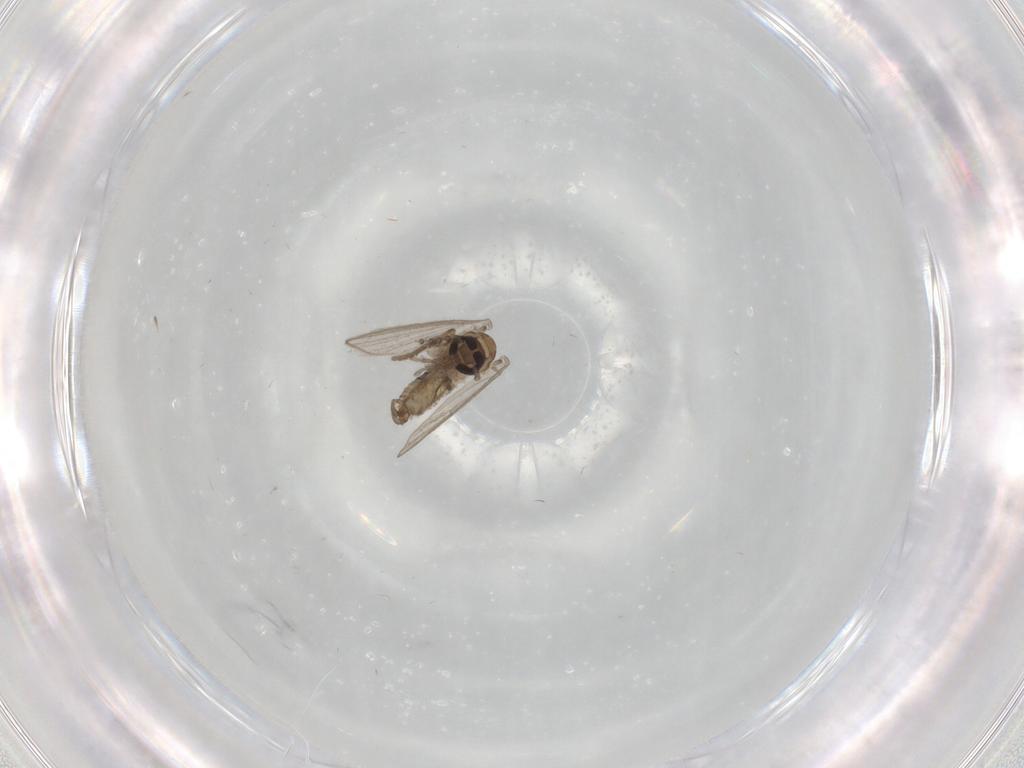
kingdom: Animalia
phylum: Arthropoda
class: Insecta
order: Diptera
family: Psychodidae
